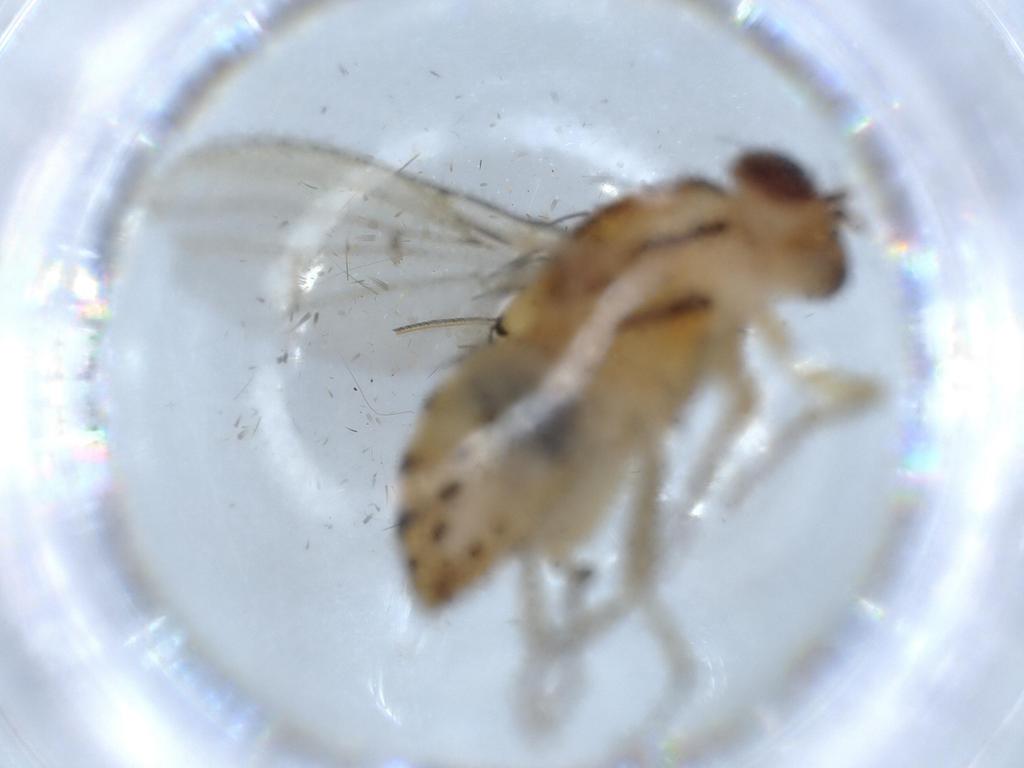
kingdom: Animalia
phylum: Arthropoda
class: Insecta
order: Diptera
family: Lauxaniidae
